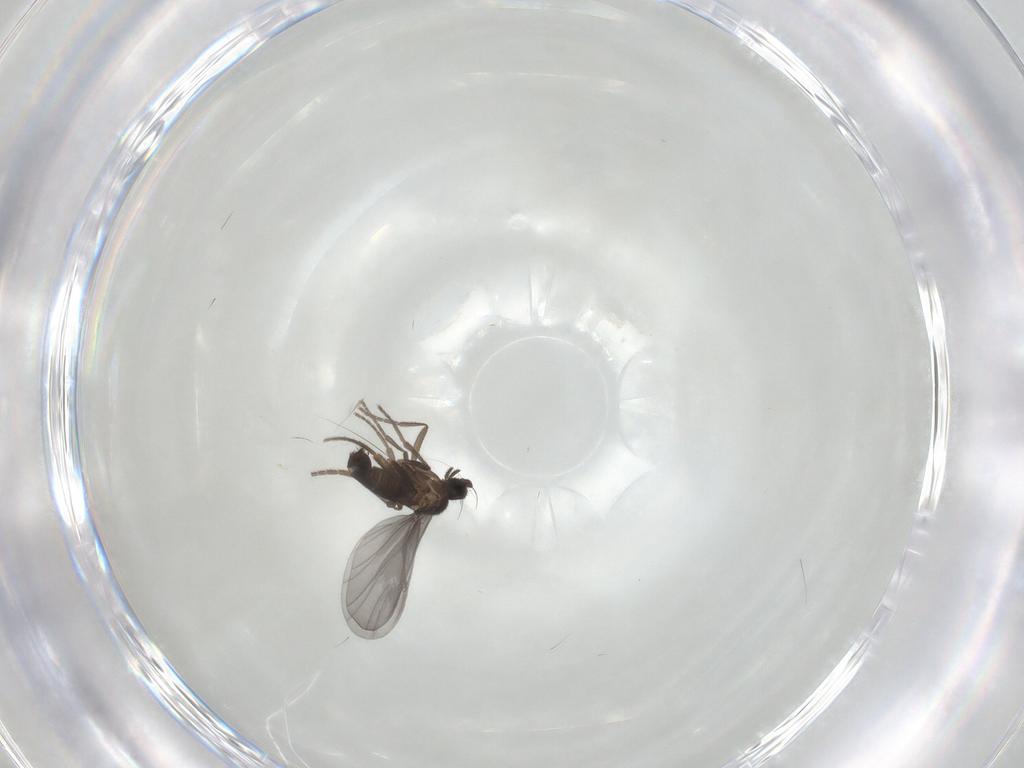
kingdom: Animalia
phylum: Arthropoda
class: Insecta
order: Diptera
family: Phoridae
